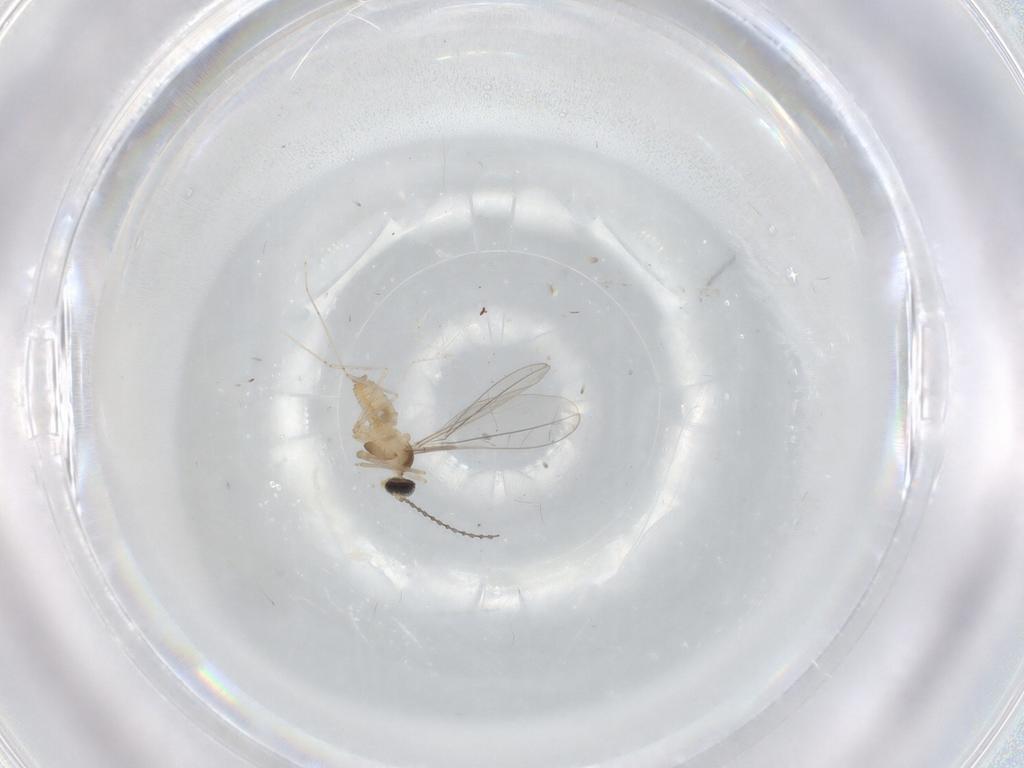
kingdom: Animalia
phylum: Arthropoda
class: Insecta
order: Diptera
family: Cecidomyiidae
